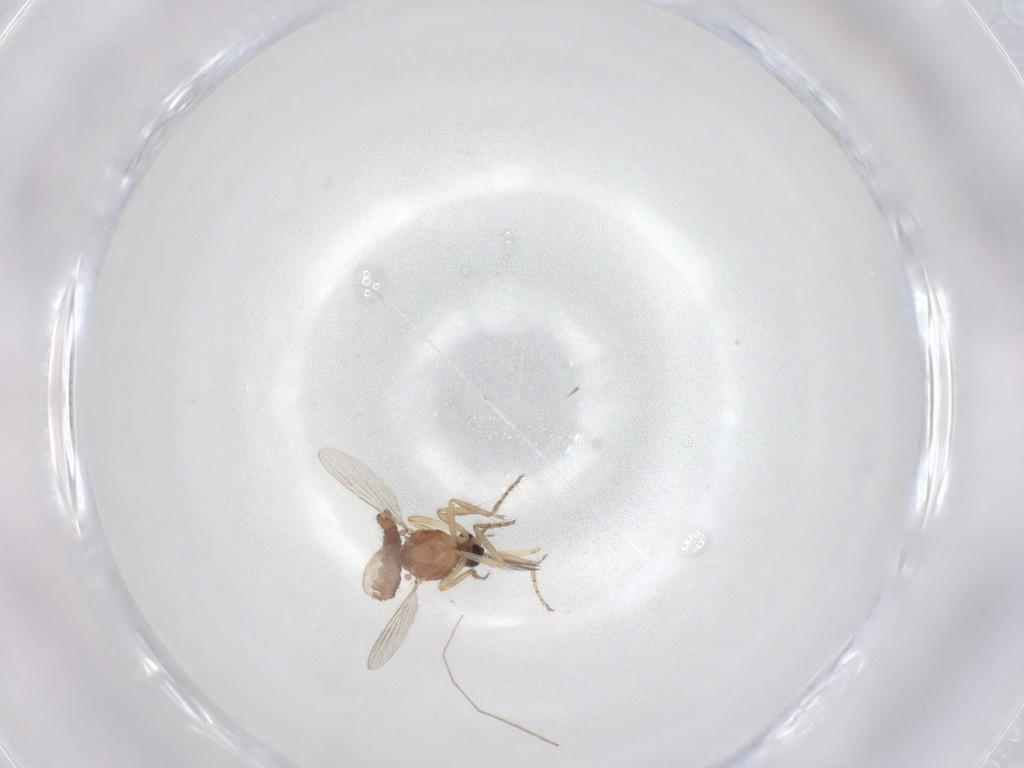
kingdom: Animalia
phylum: Arthropoda
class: Insecta
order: Diptera
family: Ceratopogonidae
